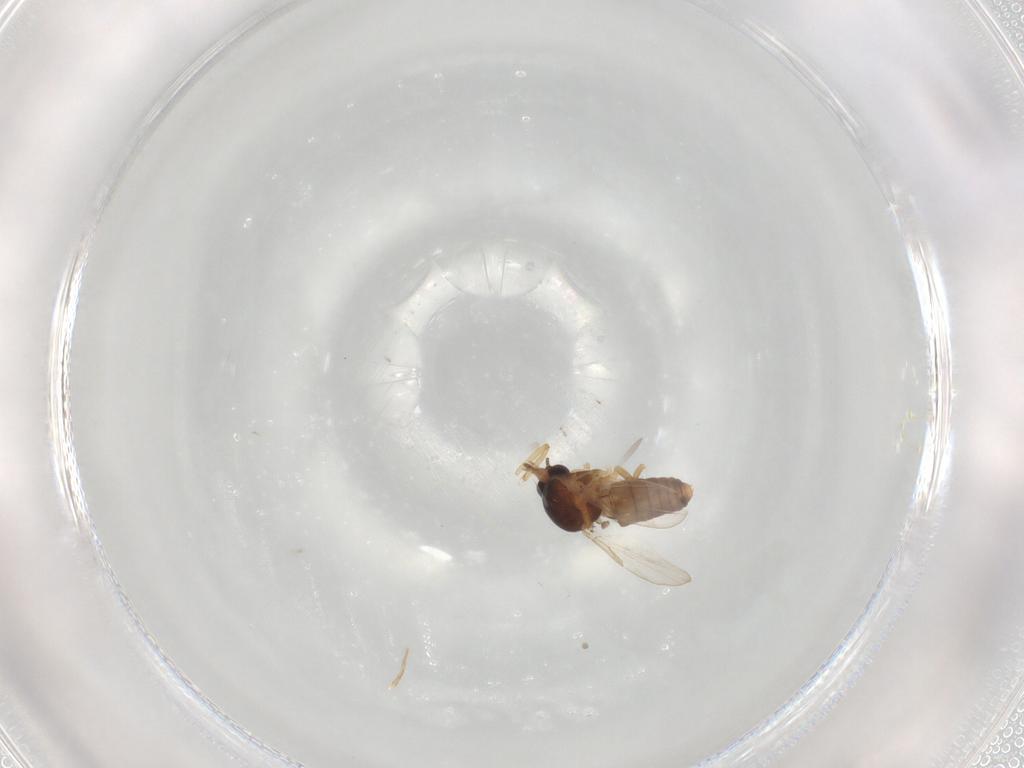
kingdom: Animalia
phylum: Arthropoda
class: Insecta
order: Diptera
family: Ceratopogonidae
